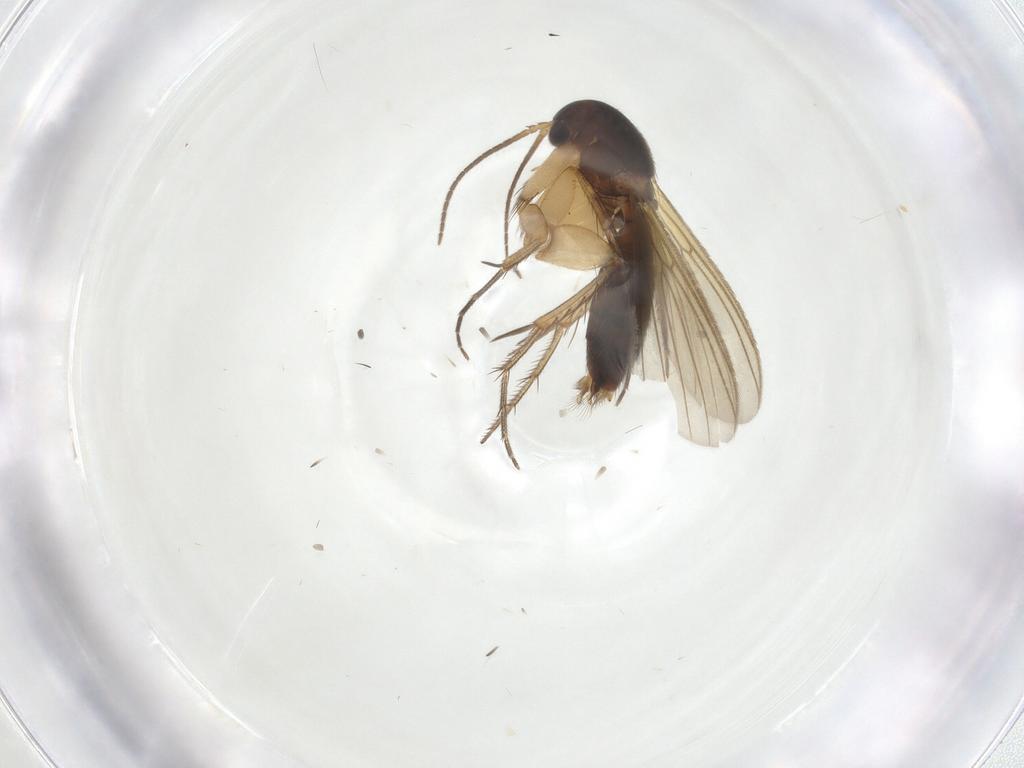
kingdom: Animalia
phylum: Arthropoda
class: Insecta
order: Diptera
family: Mycetophilidae
